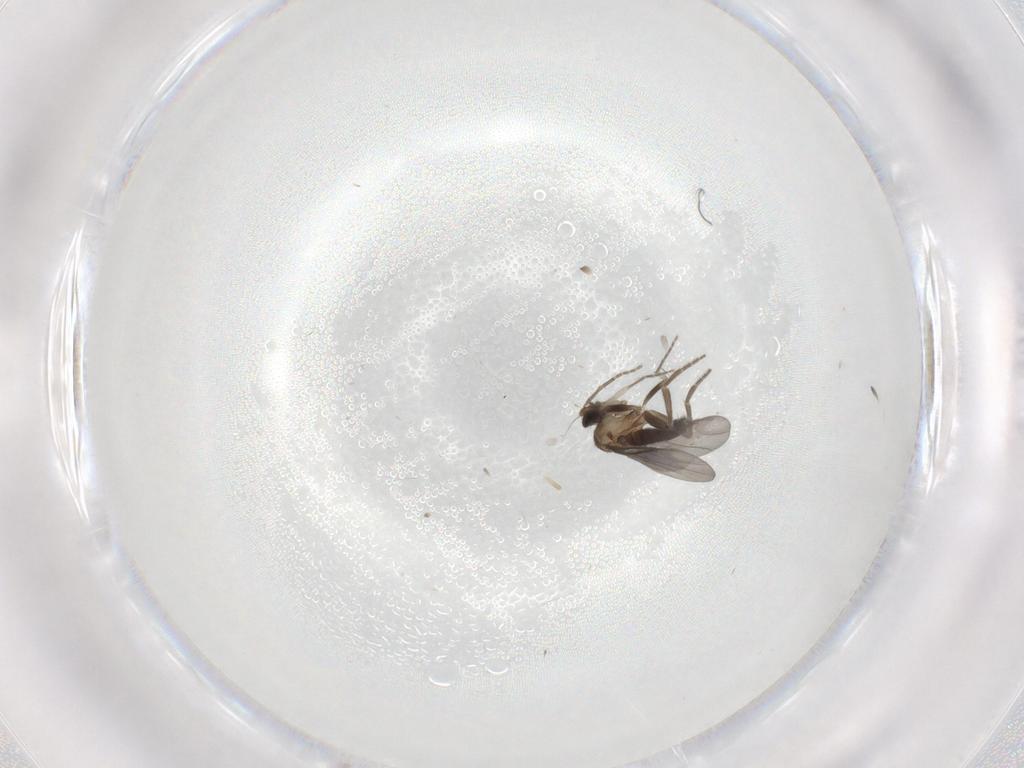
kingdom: Animalia
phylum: Arthropoda
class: Insecta
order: Diptera
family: Phoridae
